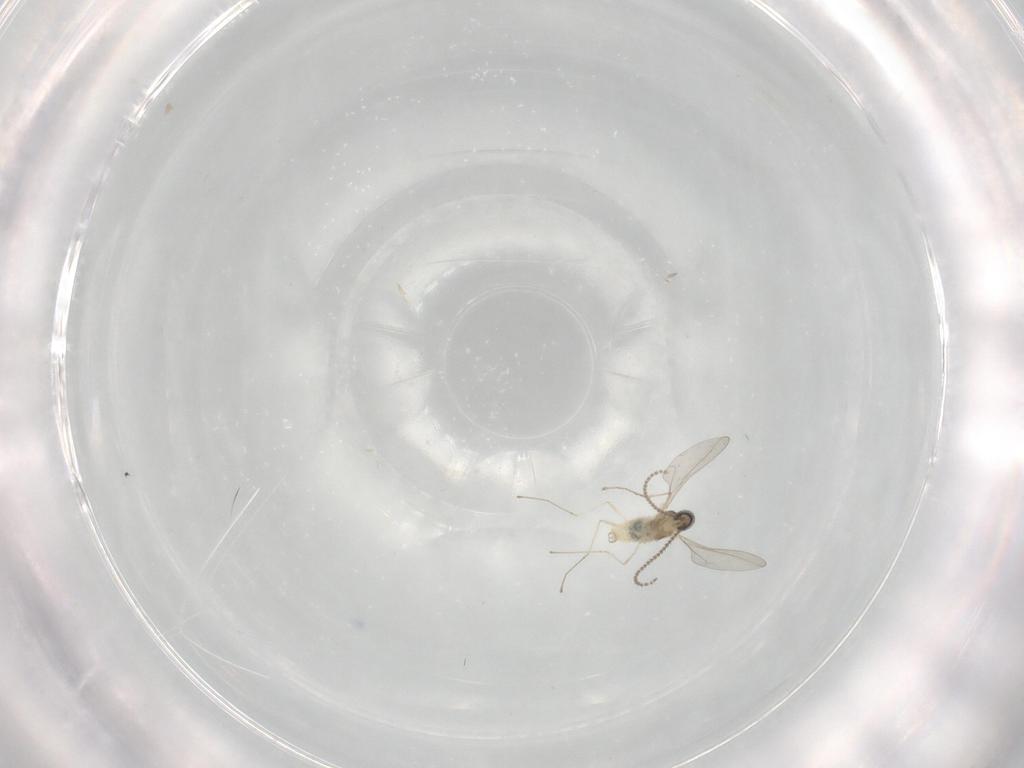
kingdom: Animalia
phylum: Arthropoda
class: Insecta
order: Diptera
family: Cecidomyiidae
